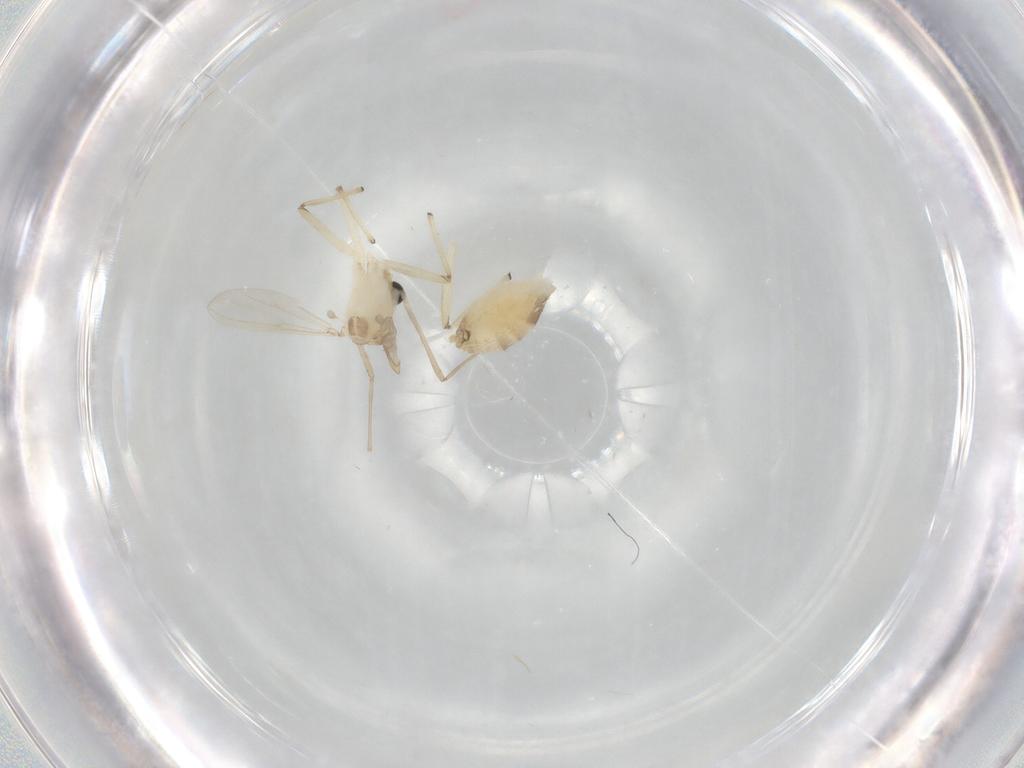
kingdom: Animalia
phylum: Arthropoda
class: Insecta
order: Diptera
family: Chironomidae
